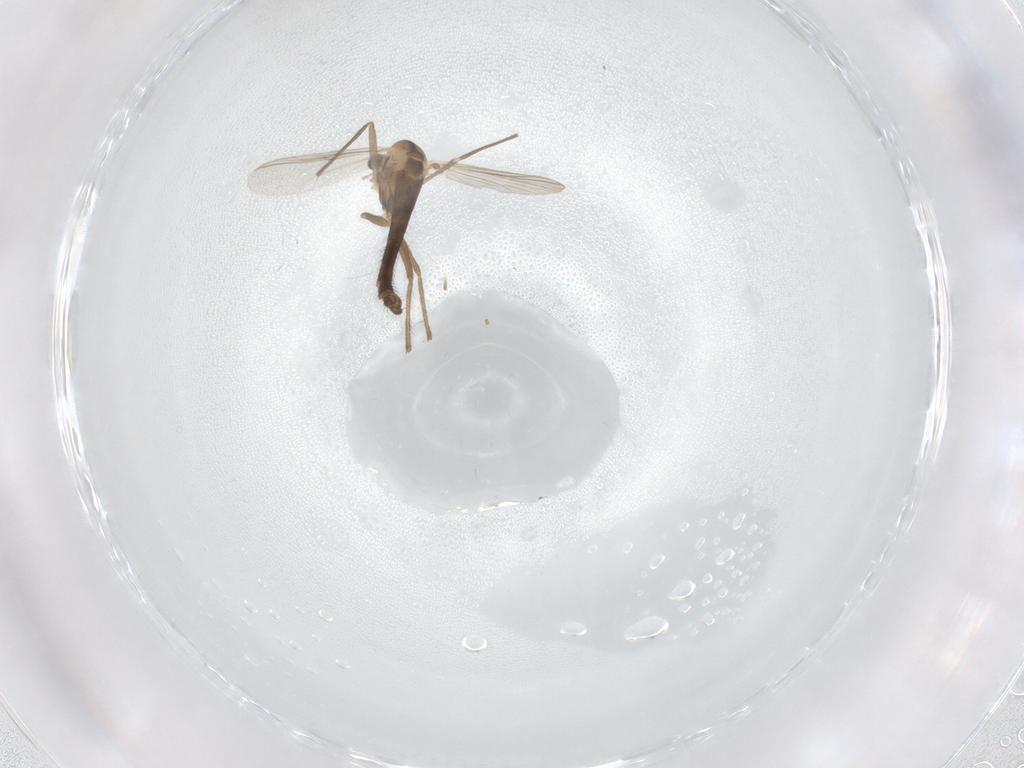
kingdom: Animalia
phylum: Arthropoda
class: Insecta
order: Diptera
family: Chironomidae
